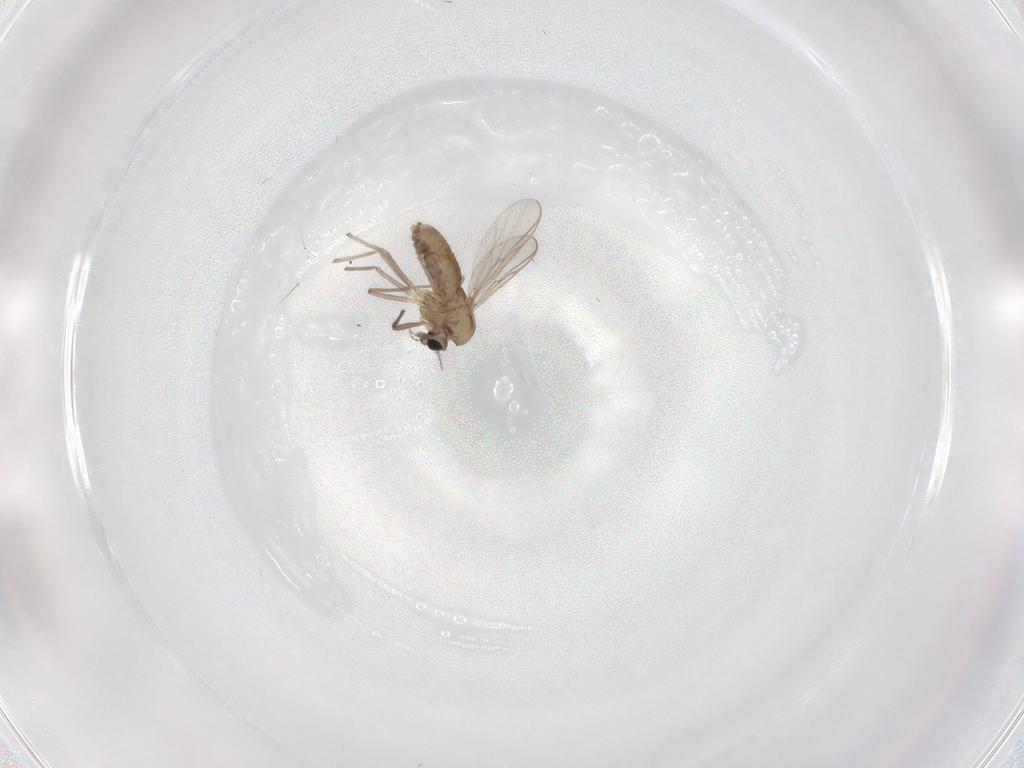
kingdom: Animalia
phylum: Arthropoda
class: Insecta
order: Diptera
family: Chironomidae
